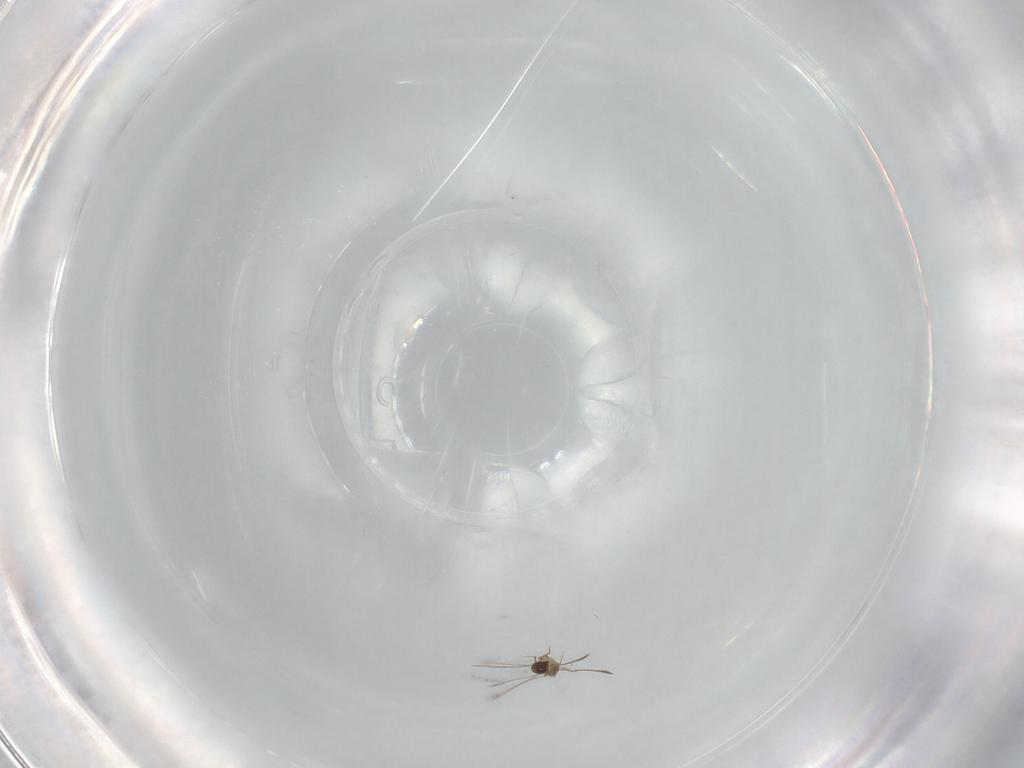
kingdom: Animalia
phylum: Arthropoda
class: Insecta
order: Hymenoptera
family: Mymaridae
